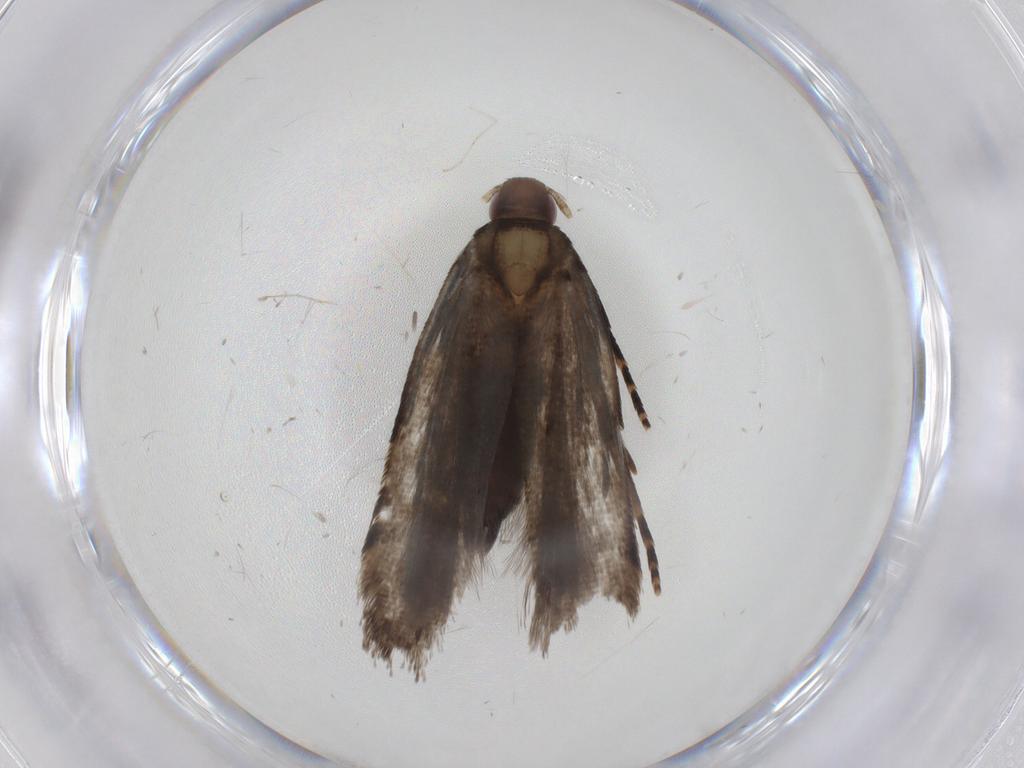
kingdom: Animalia
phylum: Arthropoda
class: Insecta
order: Lepidoptera
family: Gelechiidae
